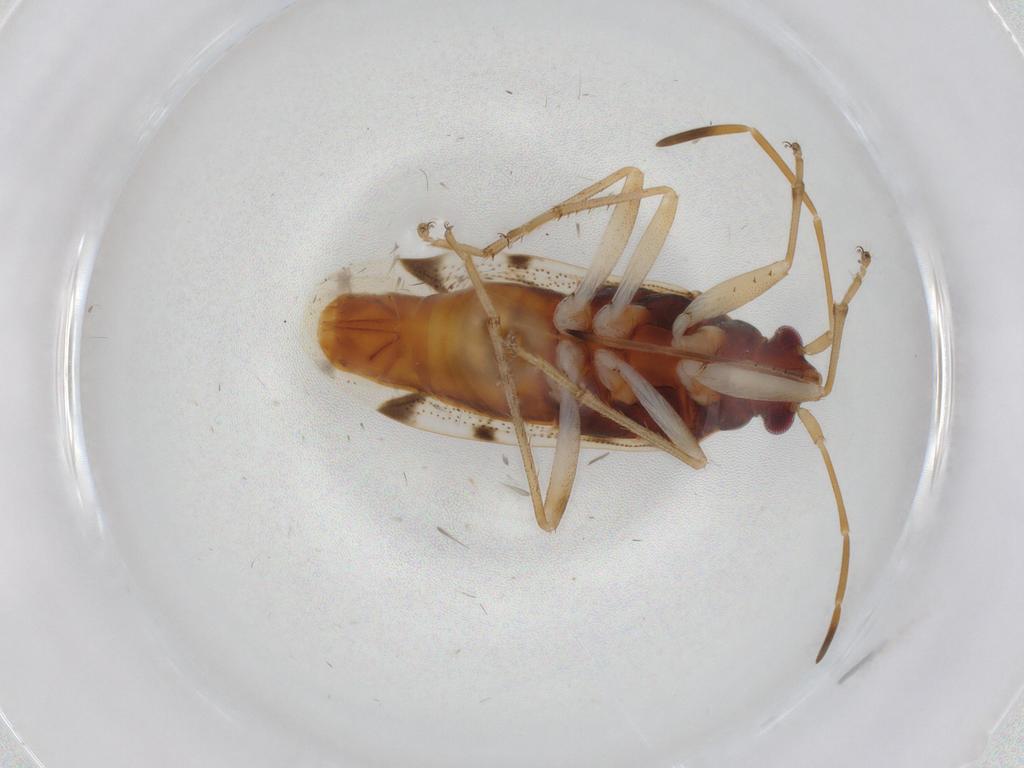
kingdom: Animalia
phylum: Arthropoda
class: Insecta
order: Hemiptera
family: Rhyparochromidae
